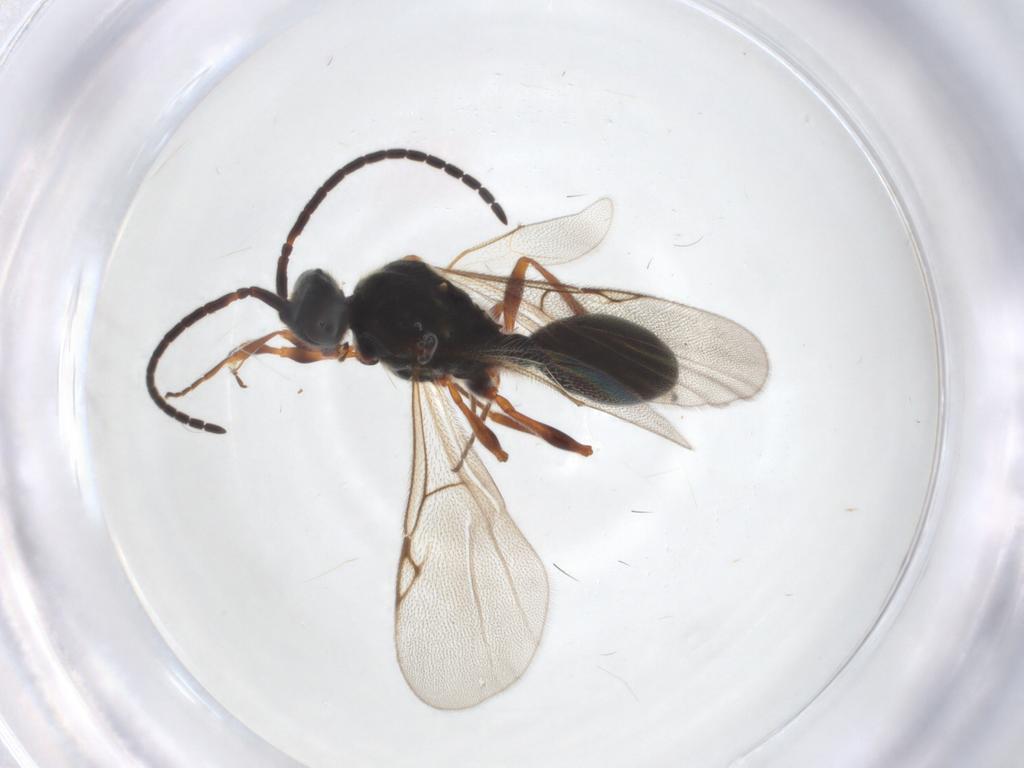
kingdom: Animalia
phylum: Arthropoda
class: Insecta
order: Hymenoptera
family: Diapriidae
